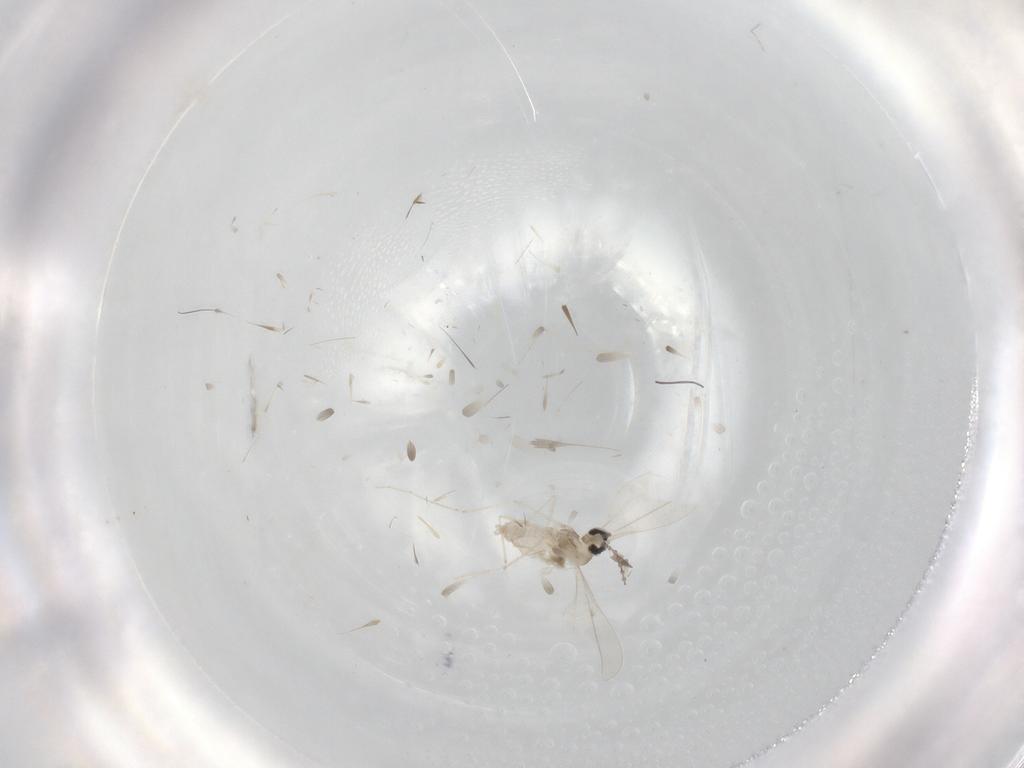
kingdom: Animalia
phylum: Arthropoda
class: Insecta
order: Diptera
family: Cecidomyiidae
